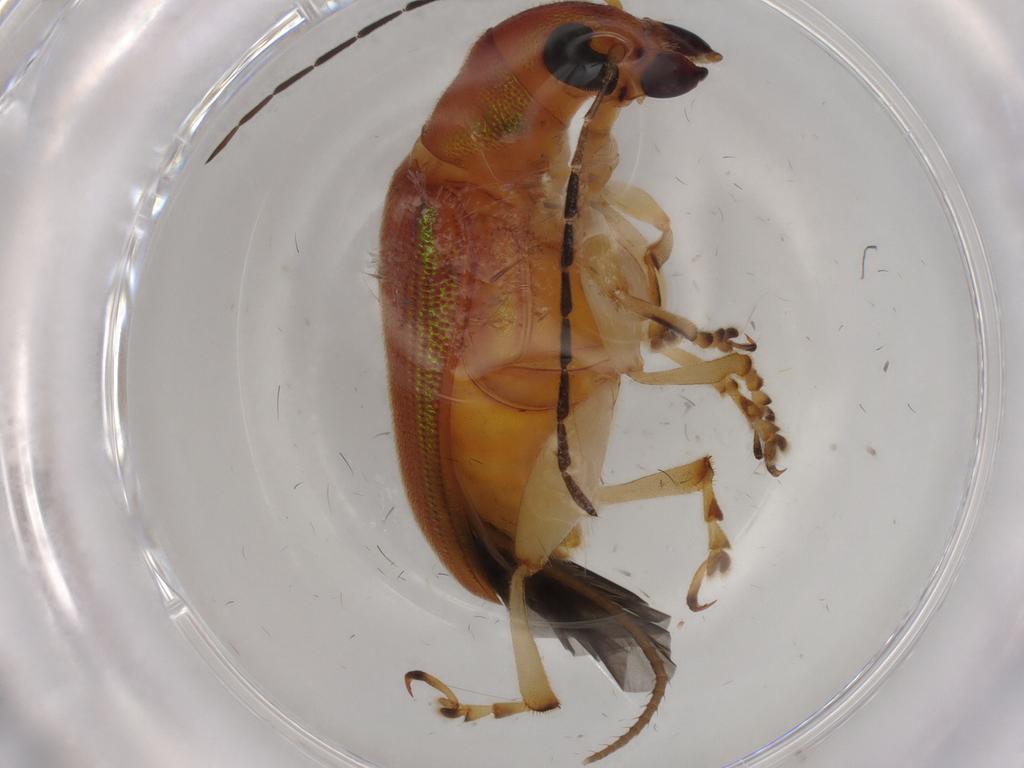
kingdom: Animalia
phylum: Arthropoda
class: Insecta
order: Coleoptera
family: Chrysomelidae
